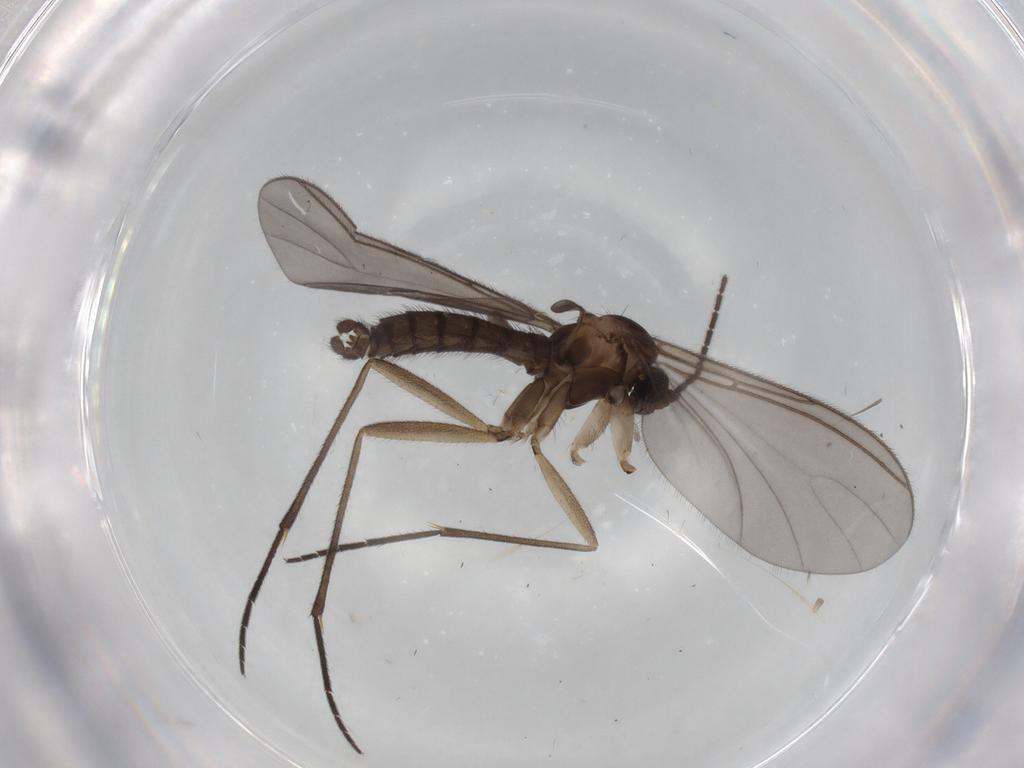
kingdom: Animalia
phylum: Arthropoda
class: Insecta
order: Diptera
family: Sciaridae
